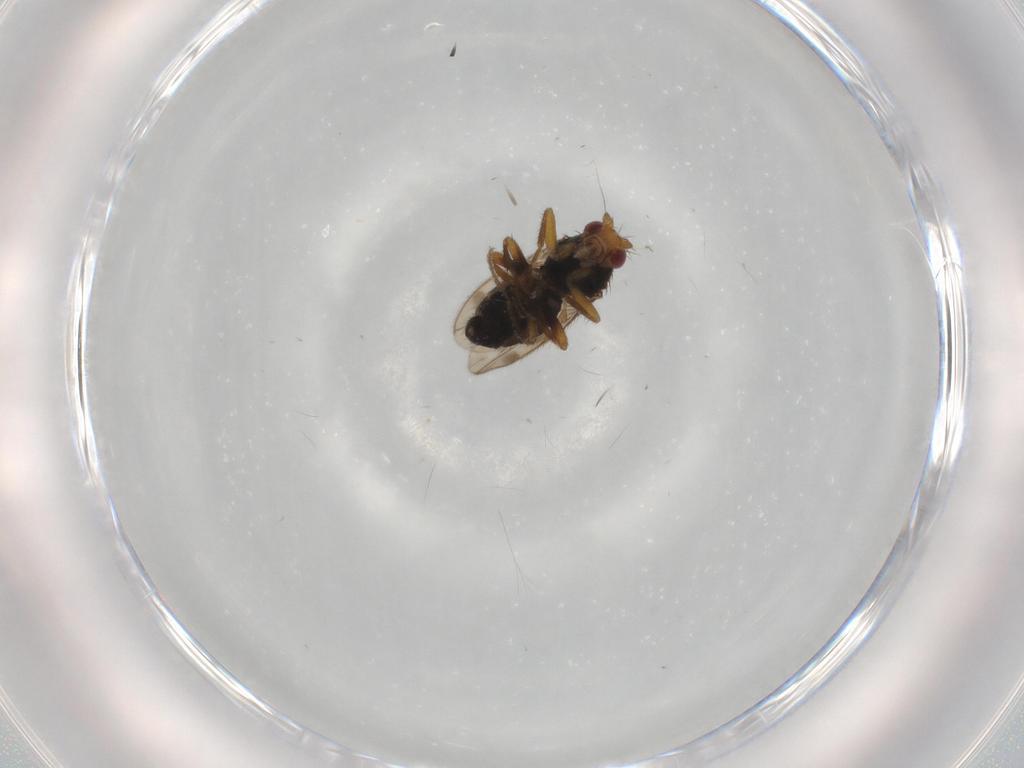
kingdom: Animalia
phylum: Arthropoda
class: Insecta
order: Diptera
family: Sphaeroceridae
